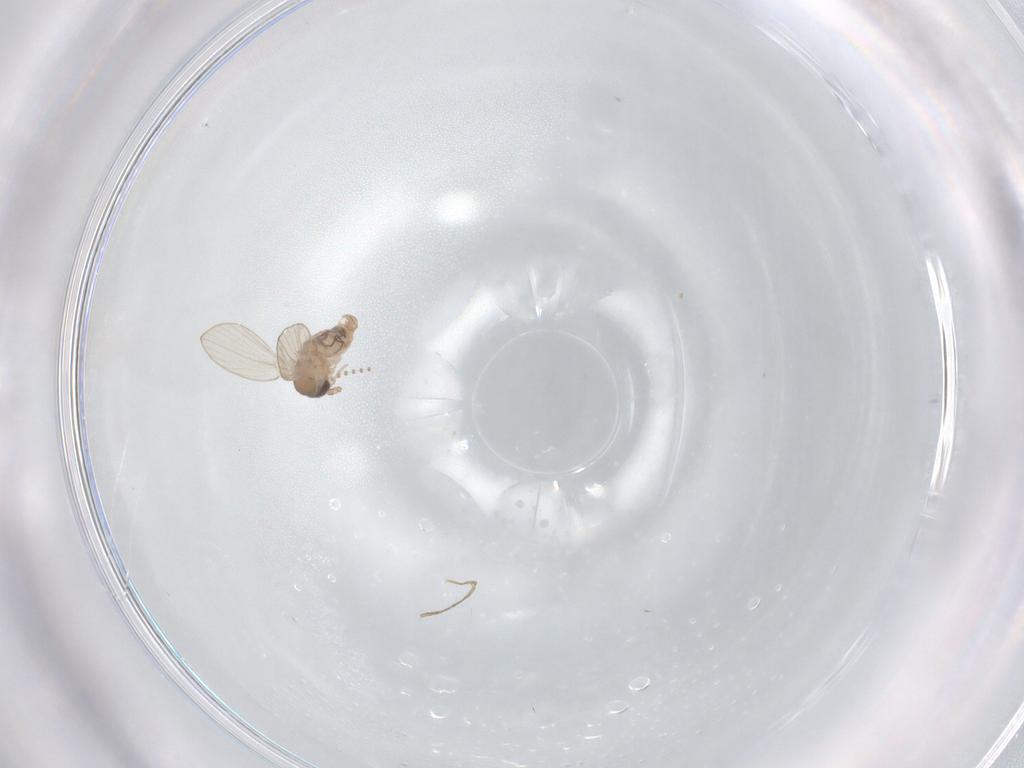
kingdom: Animalia
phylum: Arthropoda
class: Insecta
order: Diptera
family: Psychodidae
